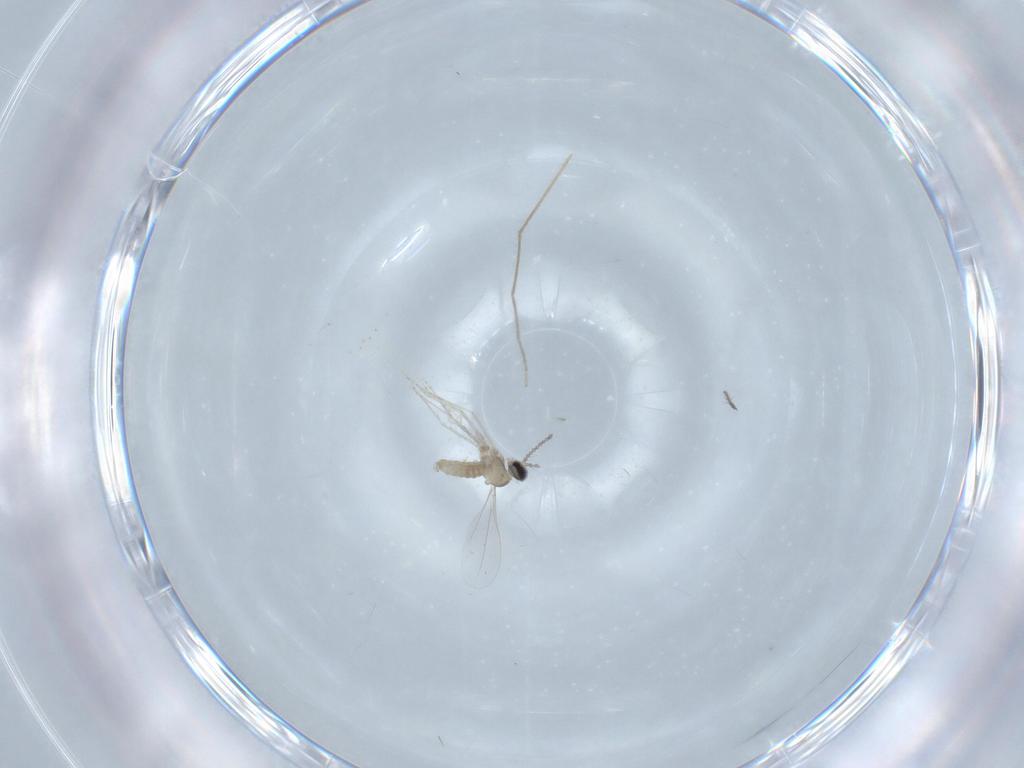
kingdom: Animalia
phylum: Arthropoda
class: Insecta
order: Diptera
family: Cecidomyiidae
